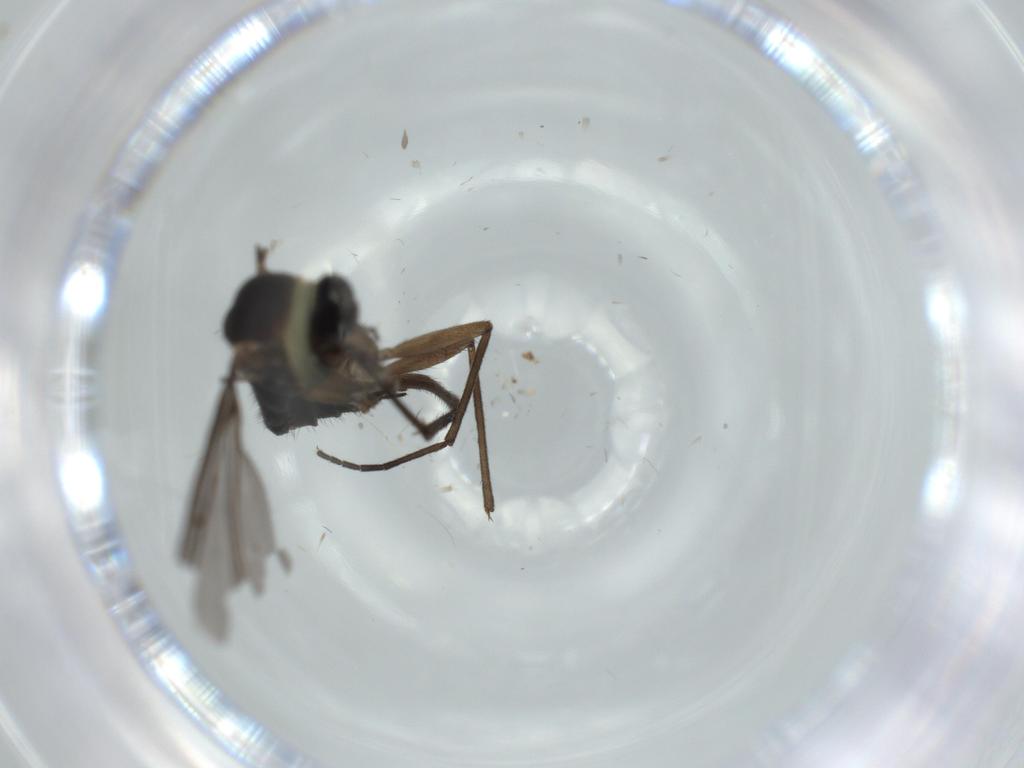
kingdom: Animalia
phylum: Arthropoda
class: Insecta
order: Diptera
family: Sciaridae
